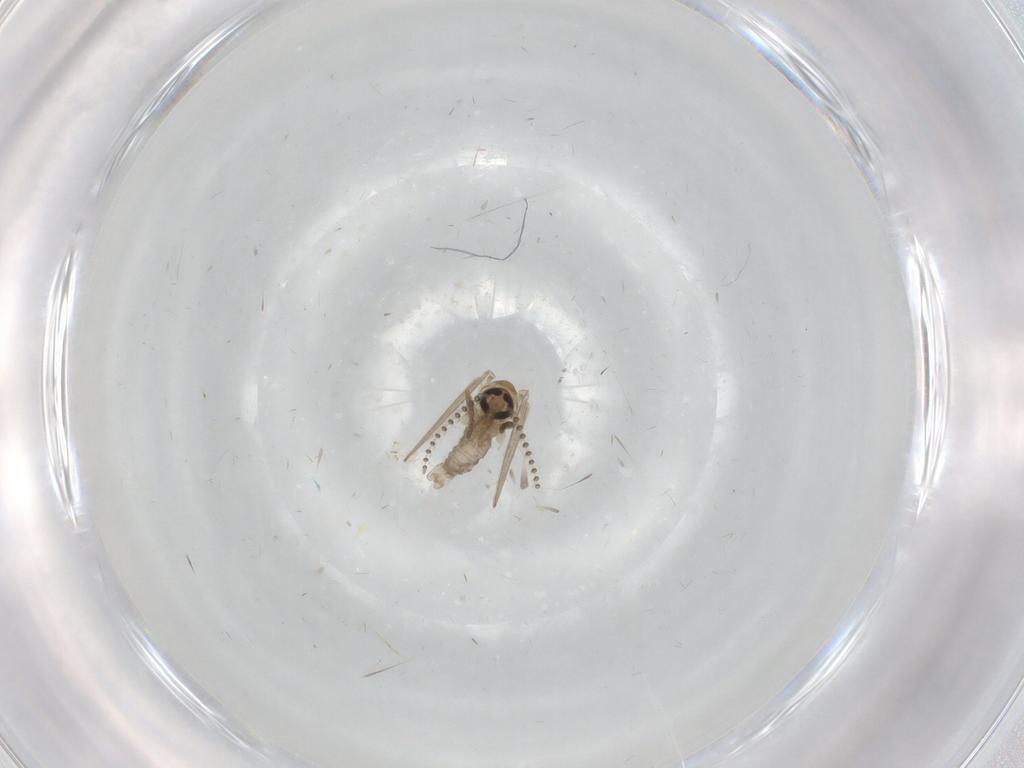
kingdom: Animalia
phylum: Arthropoda
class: Insecta
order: Diptera
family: Psychodidae
